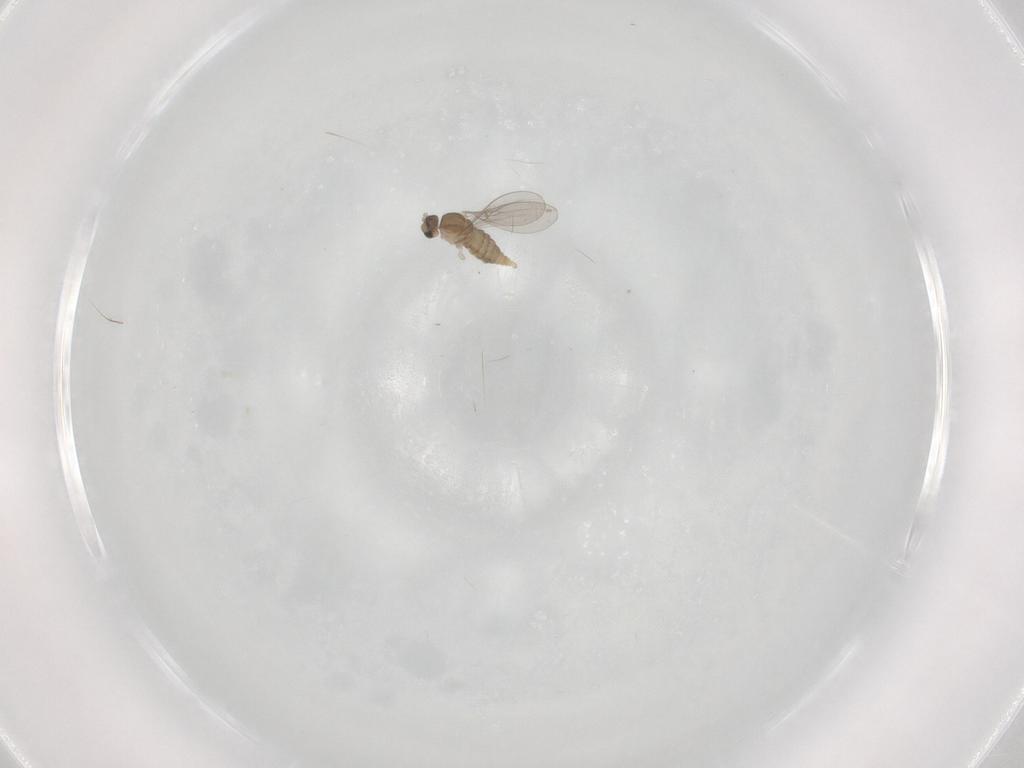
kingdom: Animalia
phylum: Arthropoda
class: Insecta
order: Diptera
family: Cecidomyiidae
